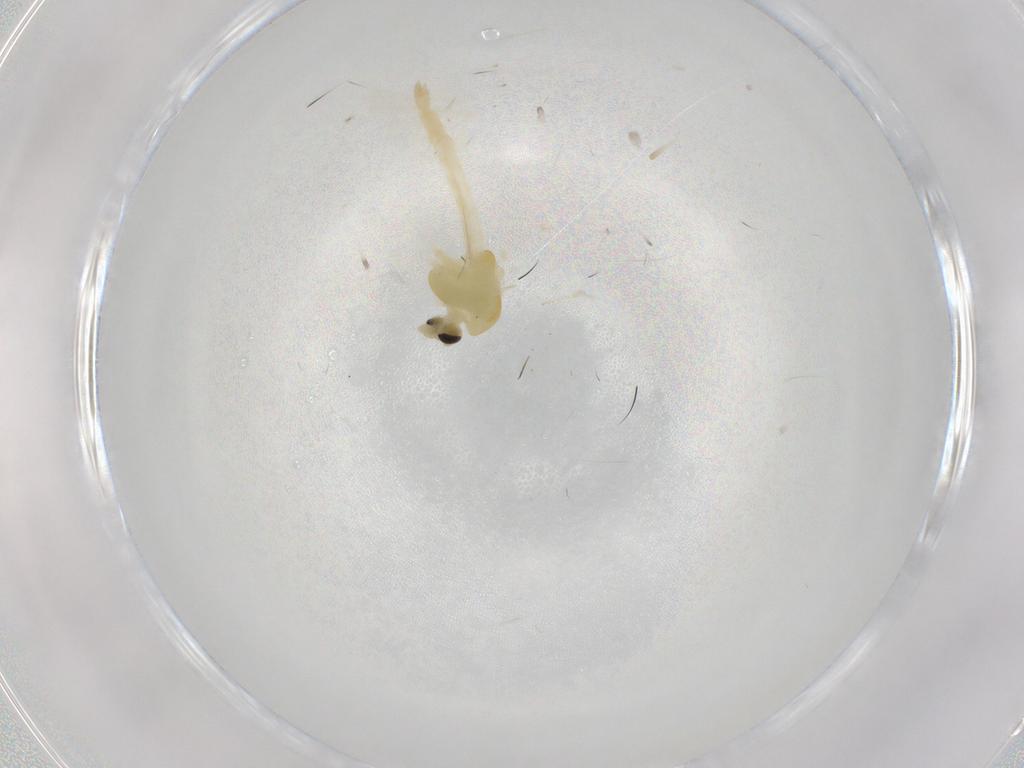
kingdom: Animalia
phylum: Arthropoda
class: Insecta
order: Diptera
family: Chironomidae
